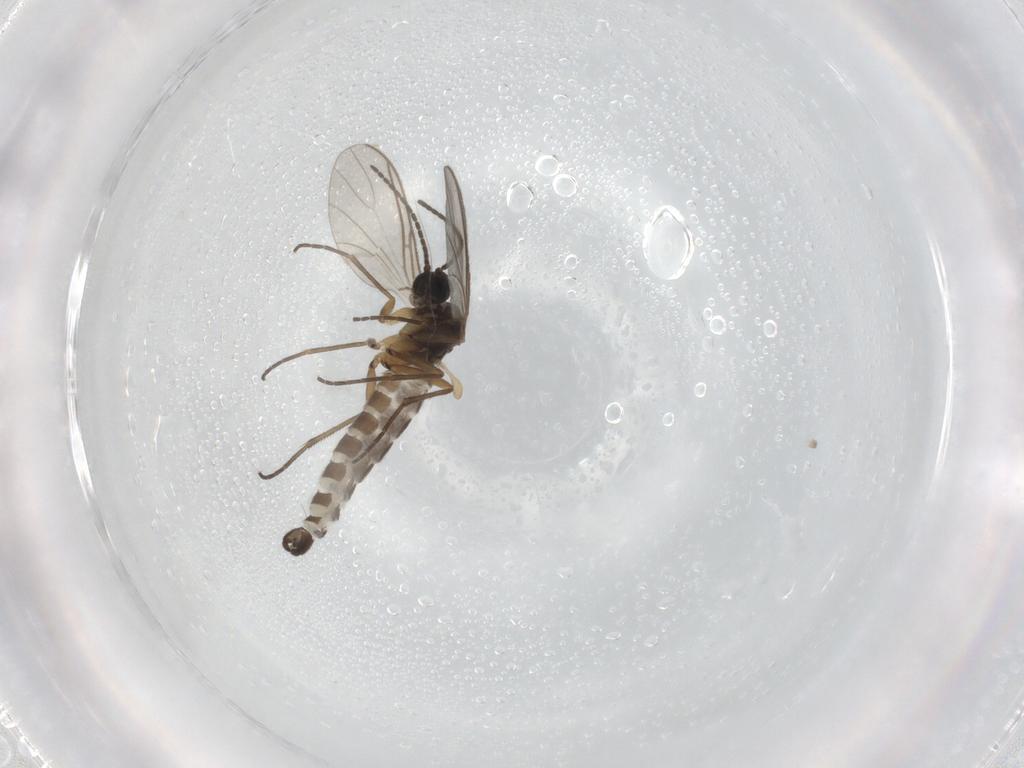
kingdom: Animalia
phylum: Arthropoda
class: Insecta
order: Diptera
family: Sciaridae
